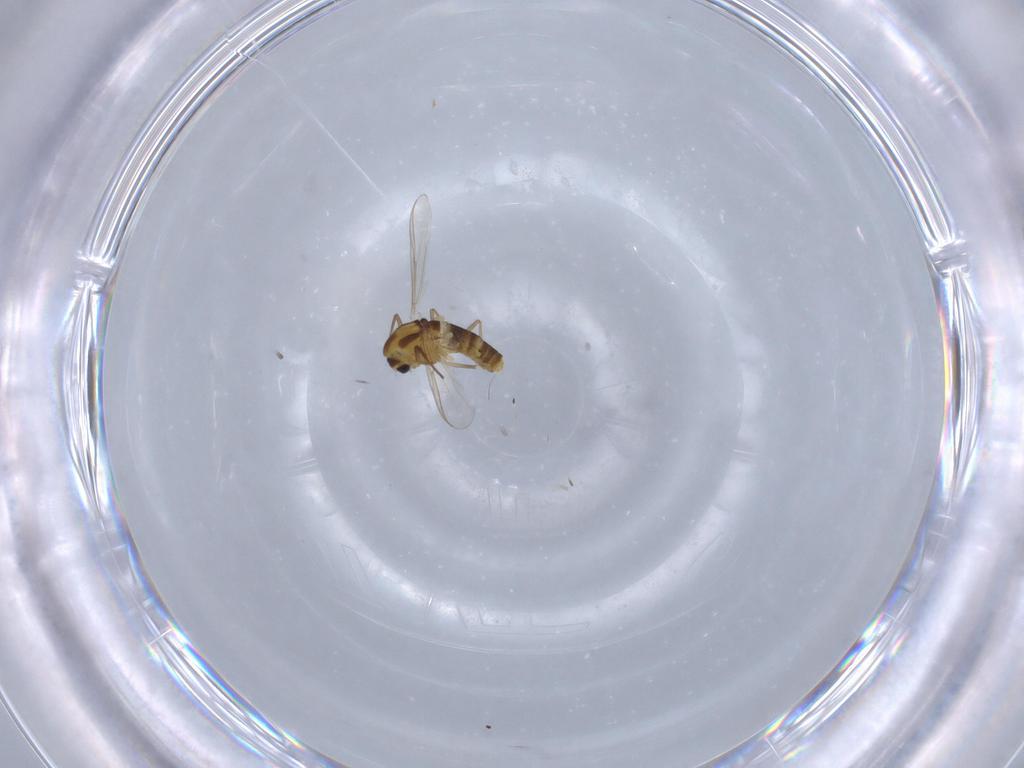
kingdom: Animalia
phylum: Arthropoda
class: Insecta
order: Diptera
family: Chironomidae
